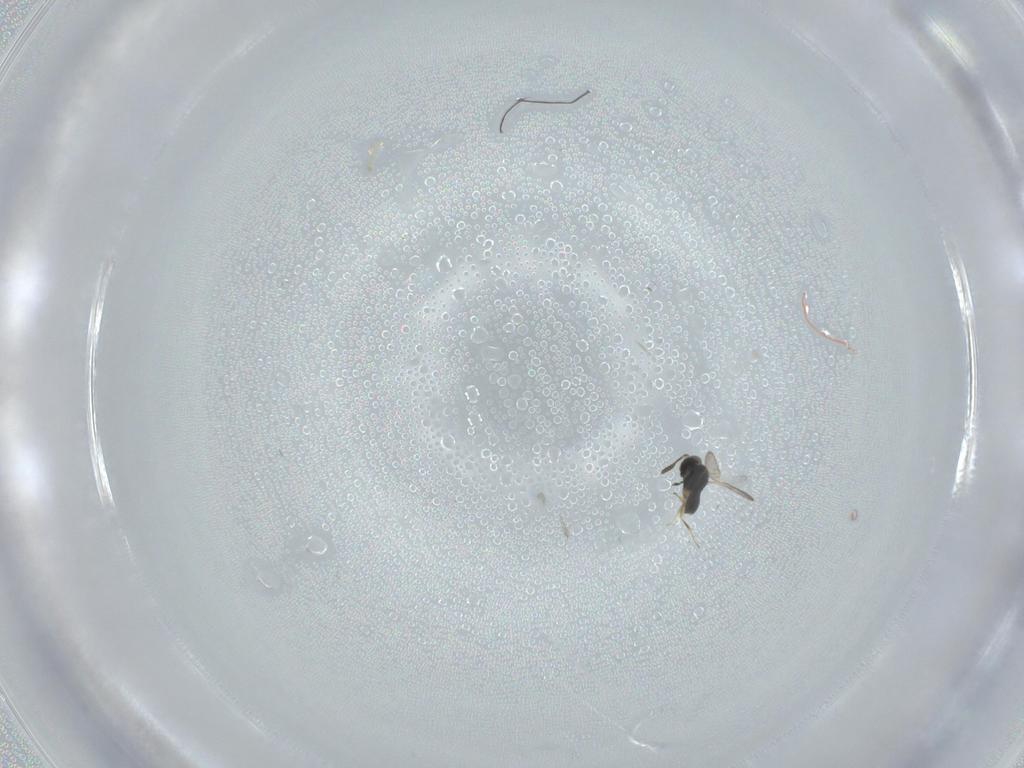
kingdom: Animalia
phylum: Arthropoda
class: Insecta
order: Hymenoptera
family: Scelionidae
